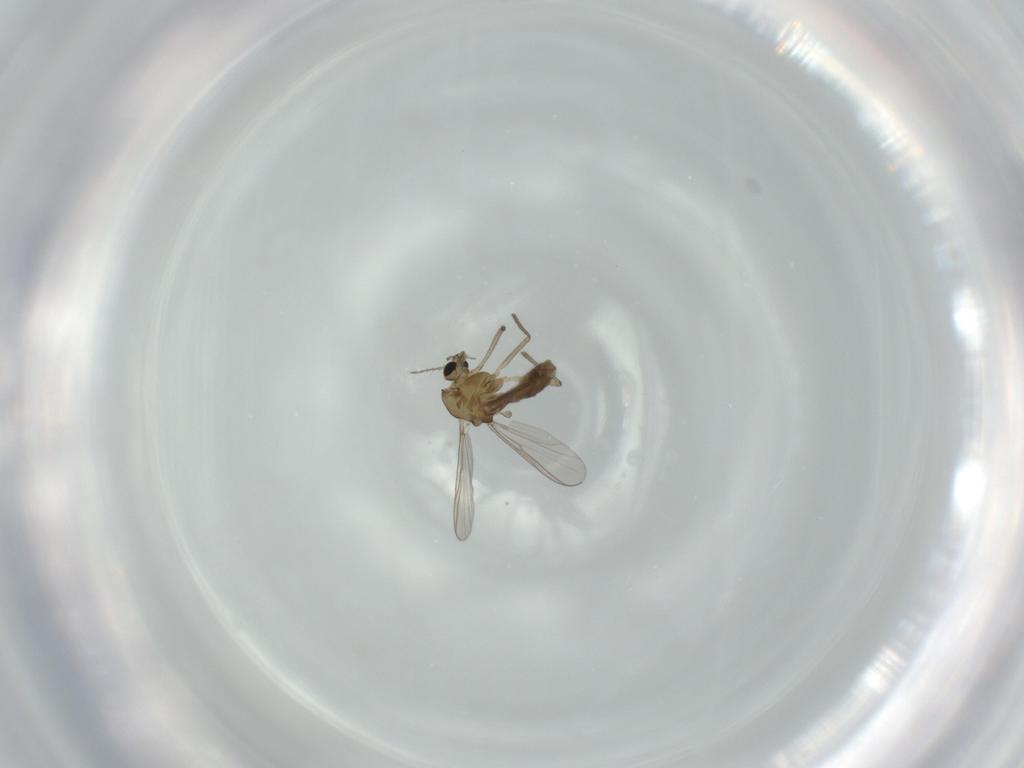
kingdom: Animalia
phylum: Arthropoda
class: Insecta
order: Diptera
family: Chironomidae
